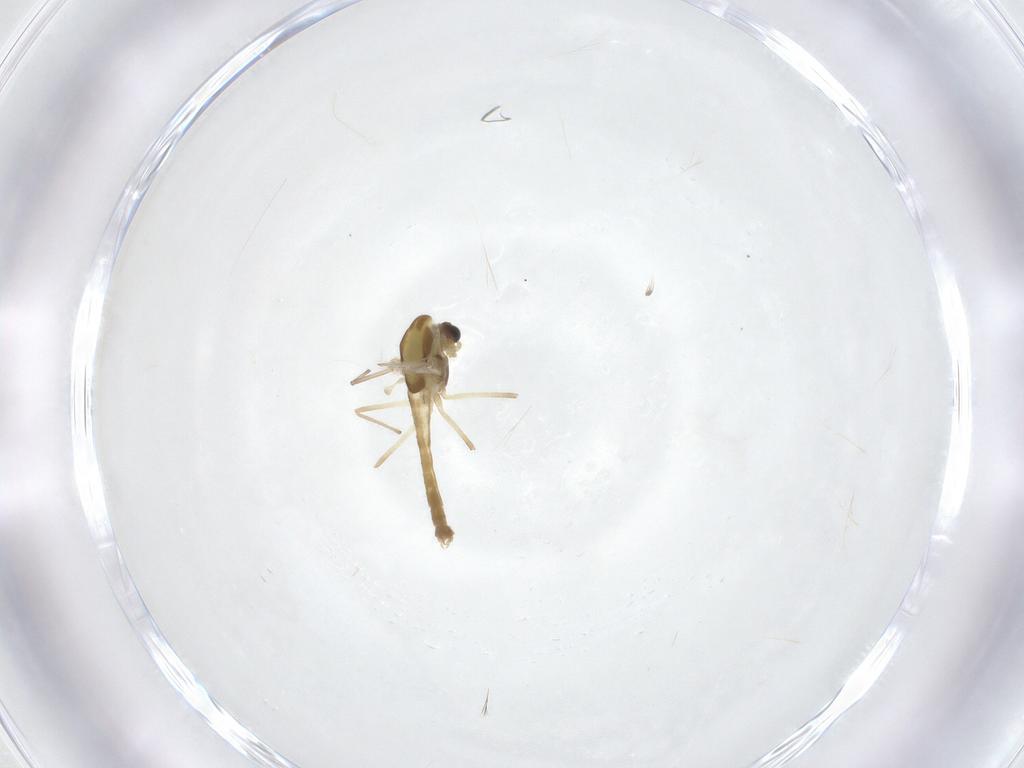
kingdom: Animalia
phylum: Arthropoda
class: Insecta
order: Diptera
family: Chironomidae
